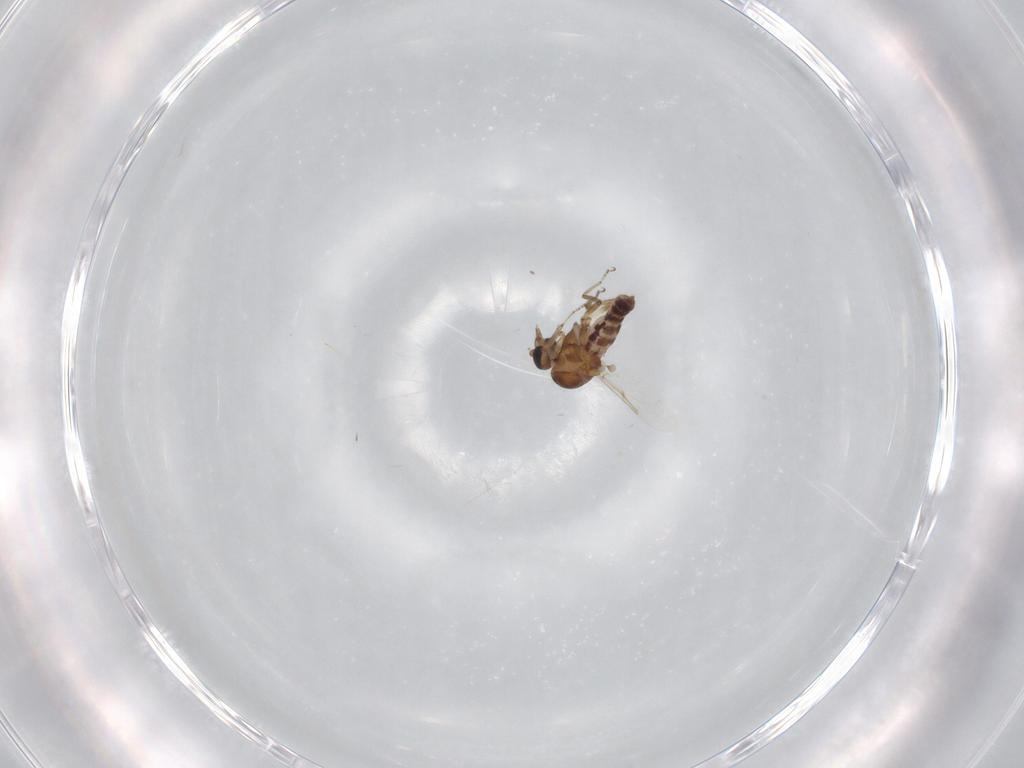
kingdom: Animalia
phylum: Arthropoda
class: Insecta
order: Diptera
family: Ceratopogonidae
